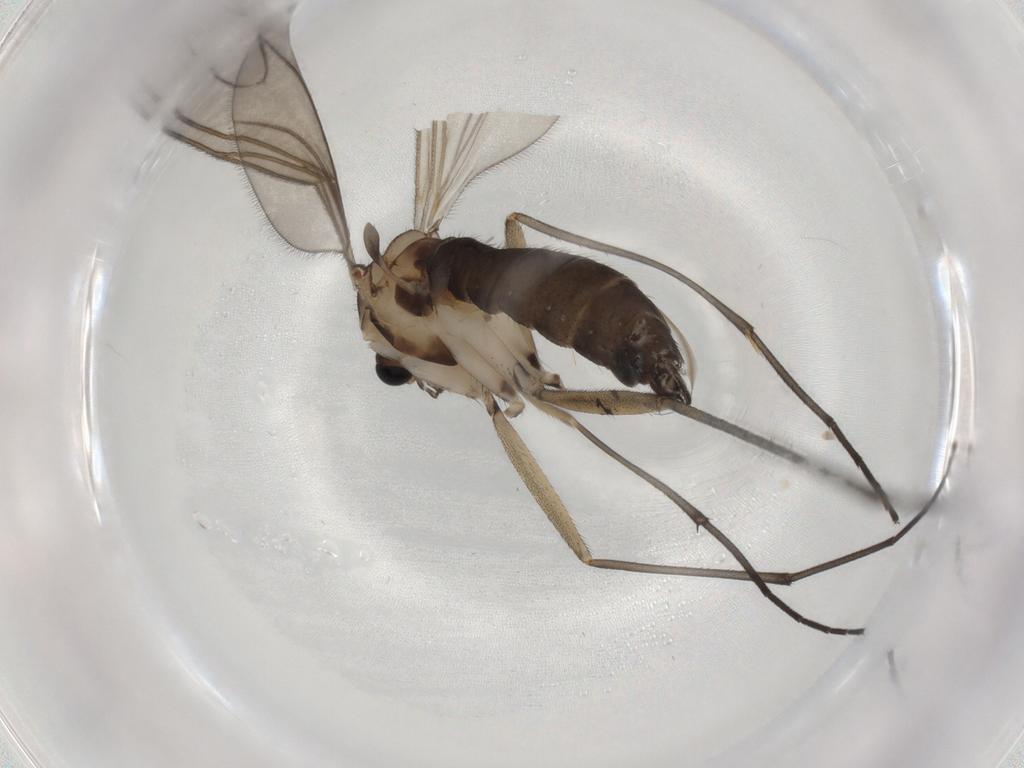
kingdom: Animalia
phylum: Arthropoda
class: Insecta
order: Diptera
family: Sciaridae
